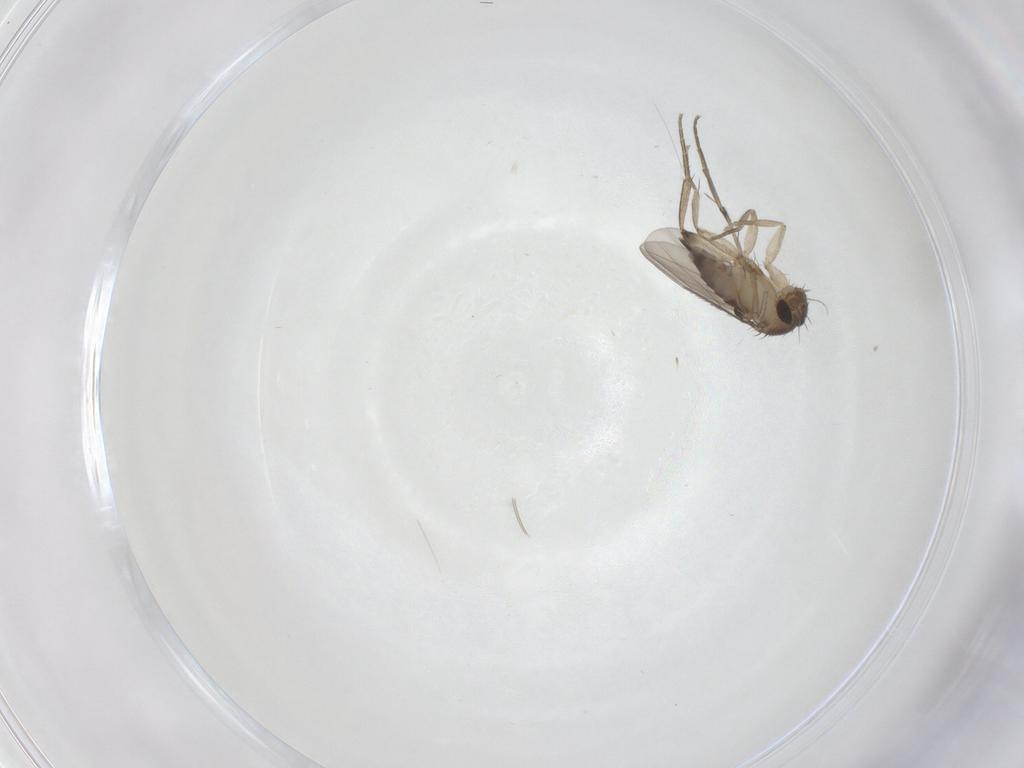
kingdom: Animalia
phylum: Arthropoda
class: Insecta
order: Diptera
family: Phoridae
